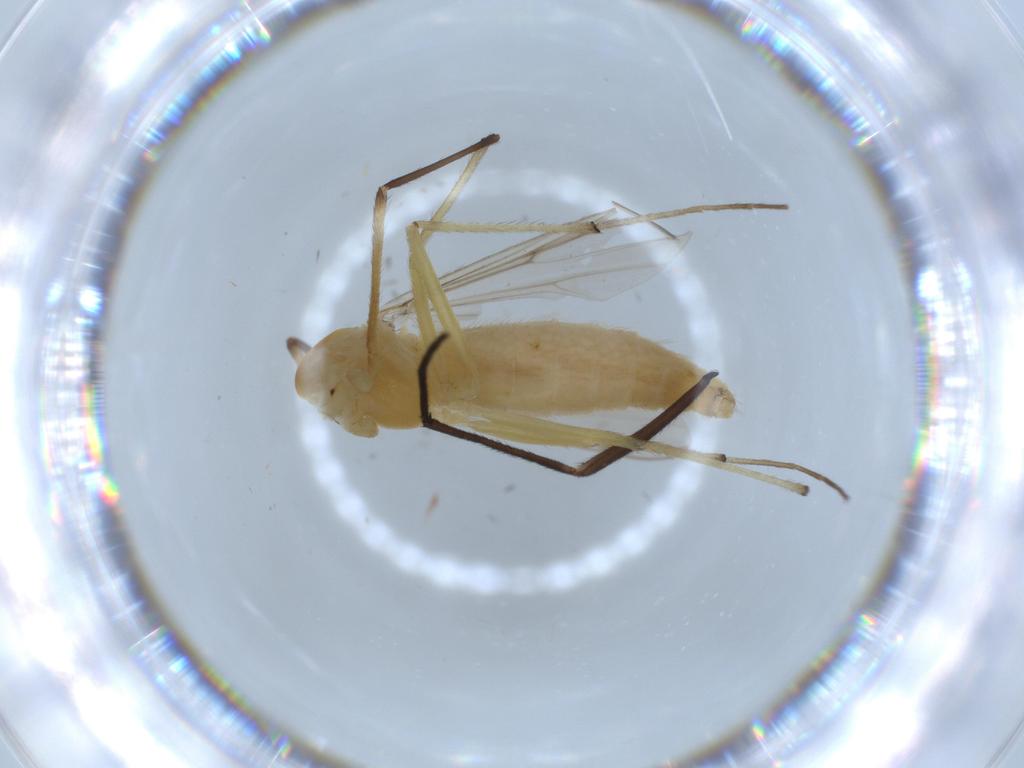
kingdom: Animalia
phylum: Arthropoda
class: Insecta
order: Diptera
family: Chironomidae
